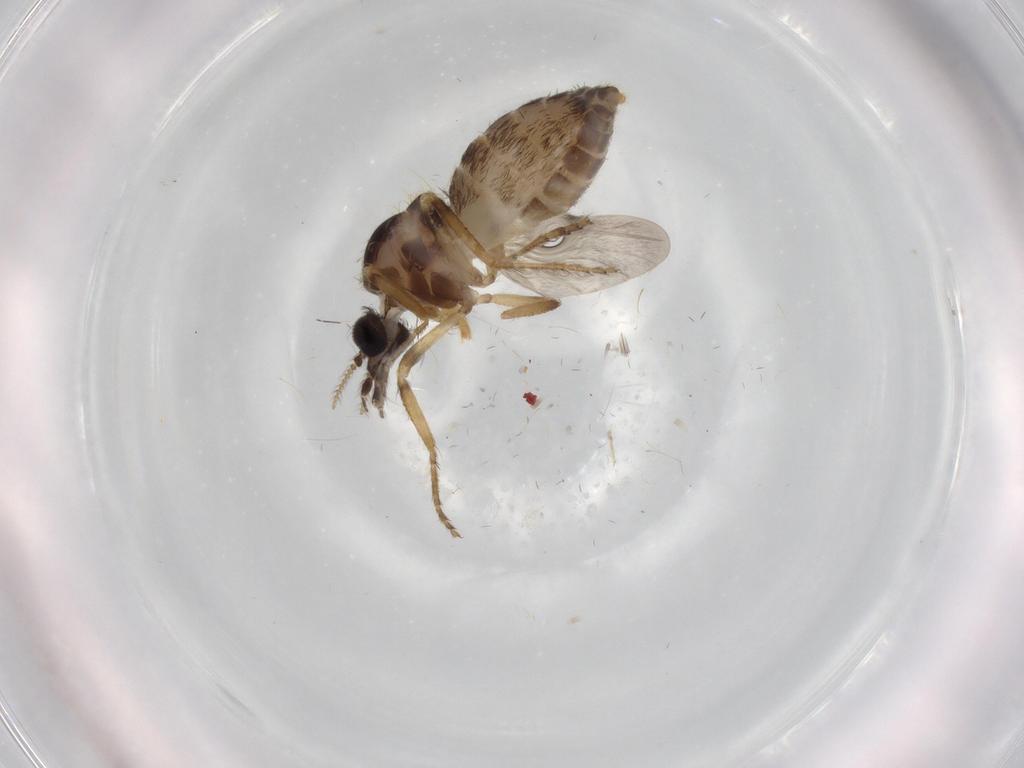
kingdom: Animalia
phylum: Arthropoda
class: Insecta
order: Diptera
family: Ceratopogonidae
